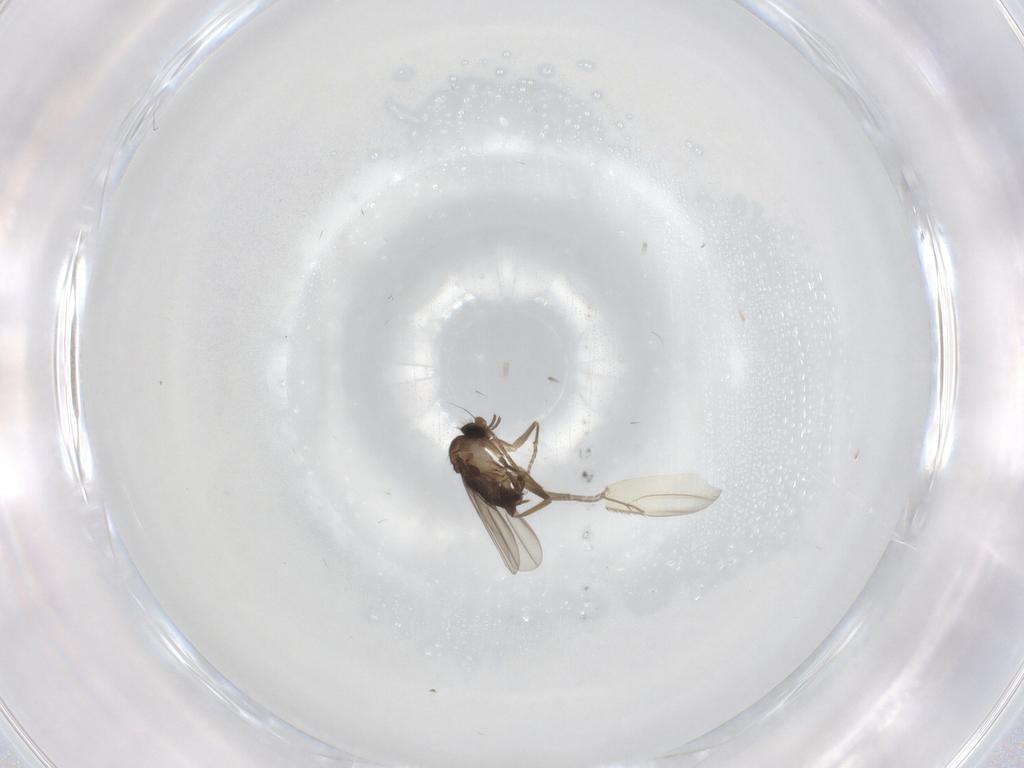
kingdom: Animalia
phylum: Arthropoda
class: Insecta
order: Diptera
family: Phoridae
